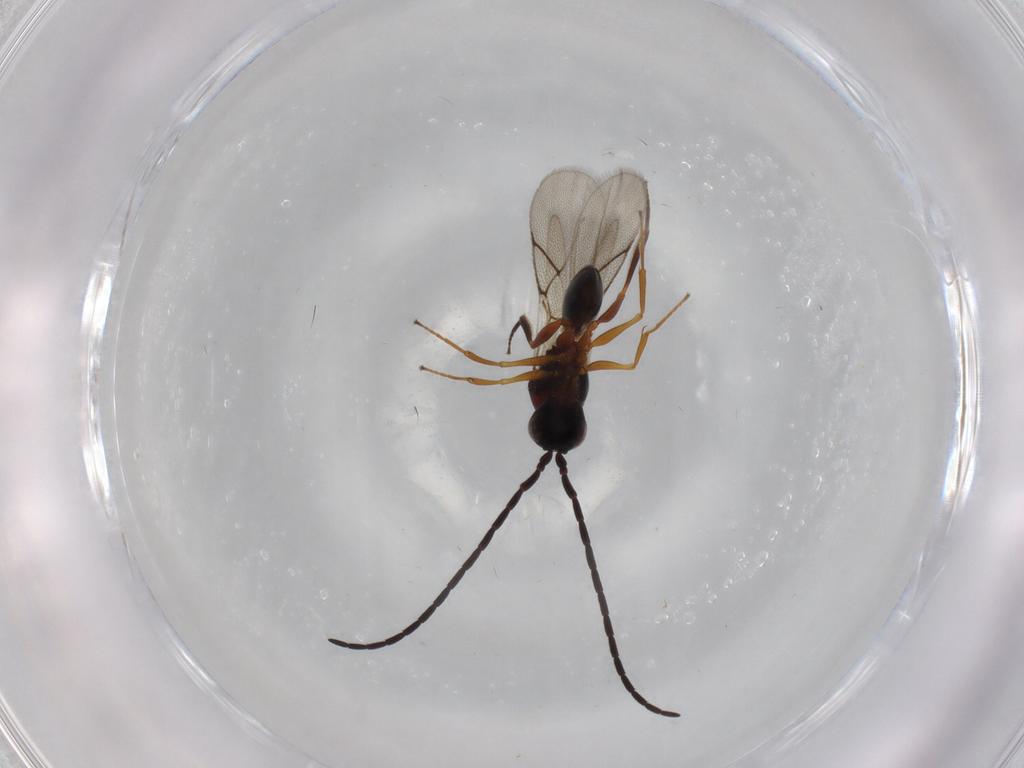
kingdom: Animalia
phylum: Arthropoda
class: Insecta
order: Hymenoptera
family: Figitidae
